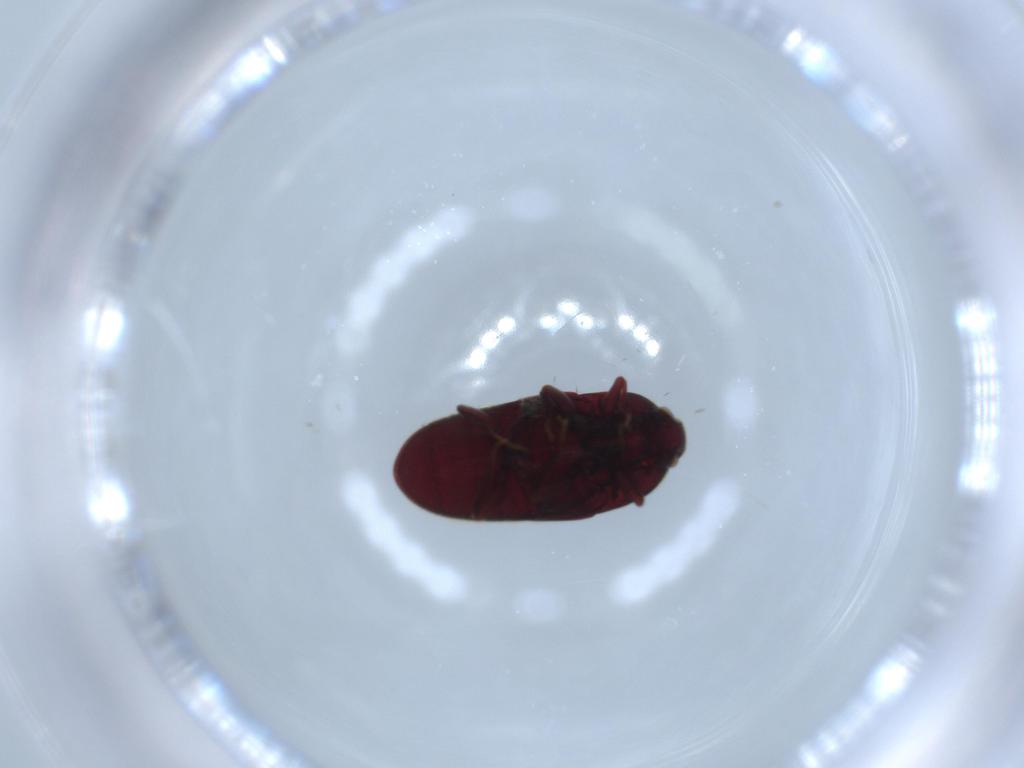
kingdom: Animalia
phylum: Arthropoda
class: Insecta
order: Coleoptera
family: Throscidae
